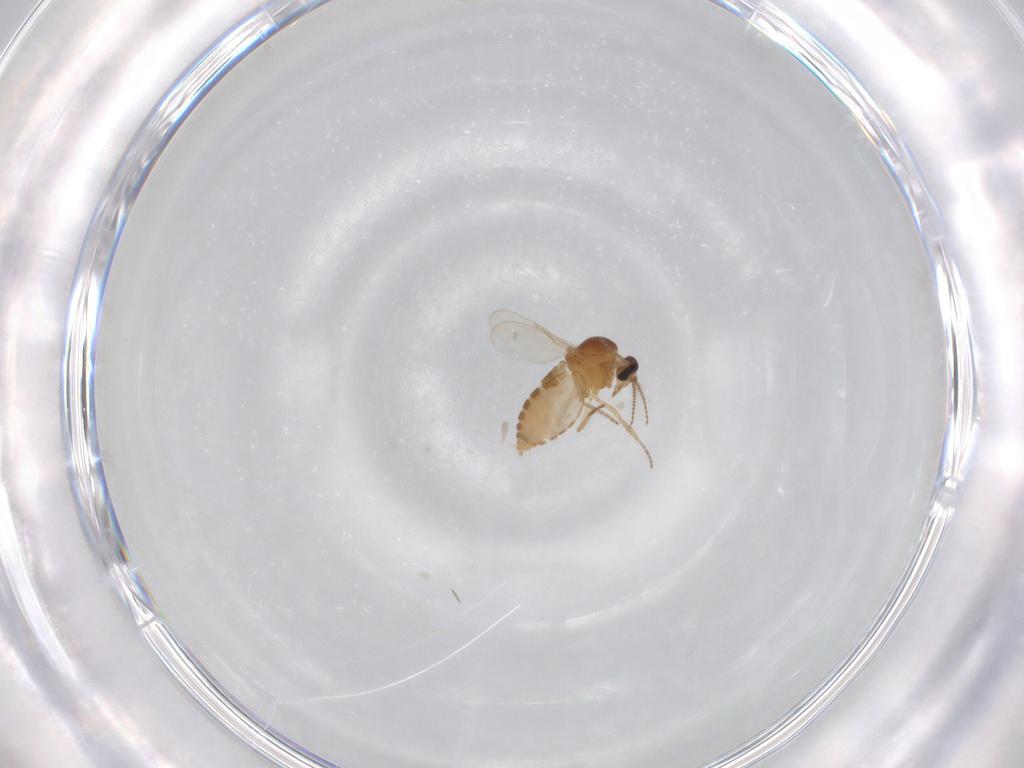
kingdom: Animalia
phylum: Arthropoda
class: Insecta
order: Diptera
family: Ceratopogonidae
